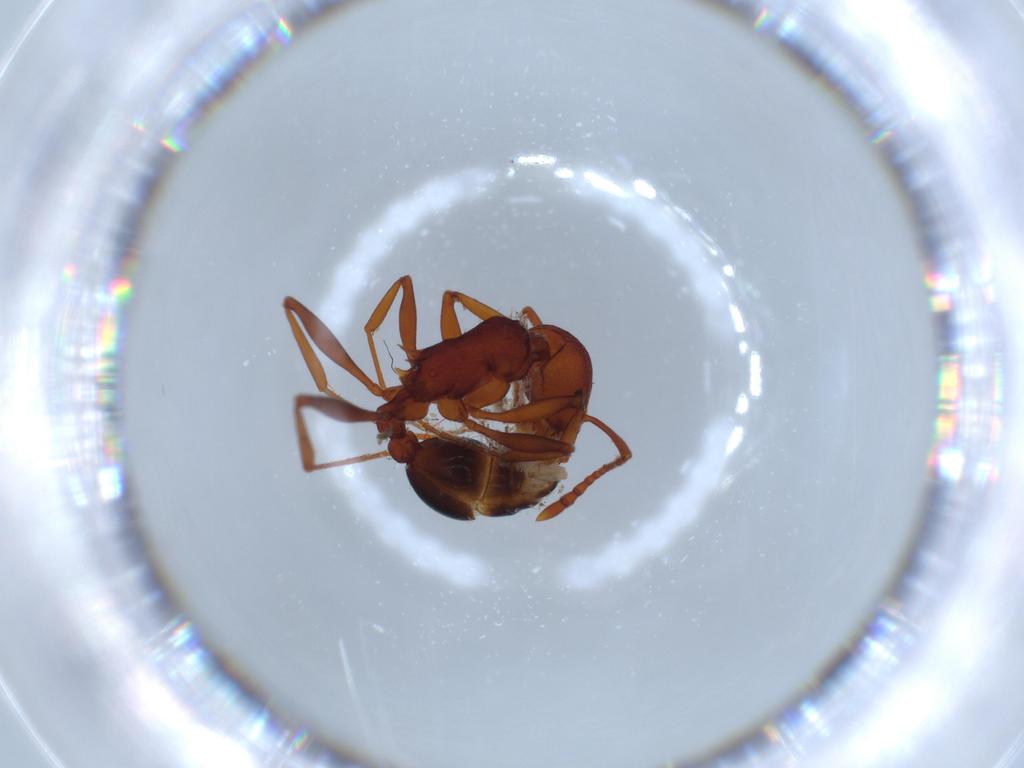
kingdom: Animalia
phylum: Arthropoda
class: Insecta
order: Hymenoptera
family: Formicidae
